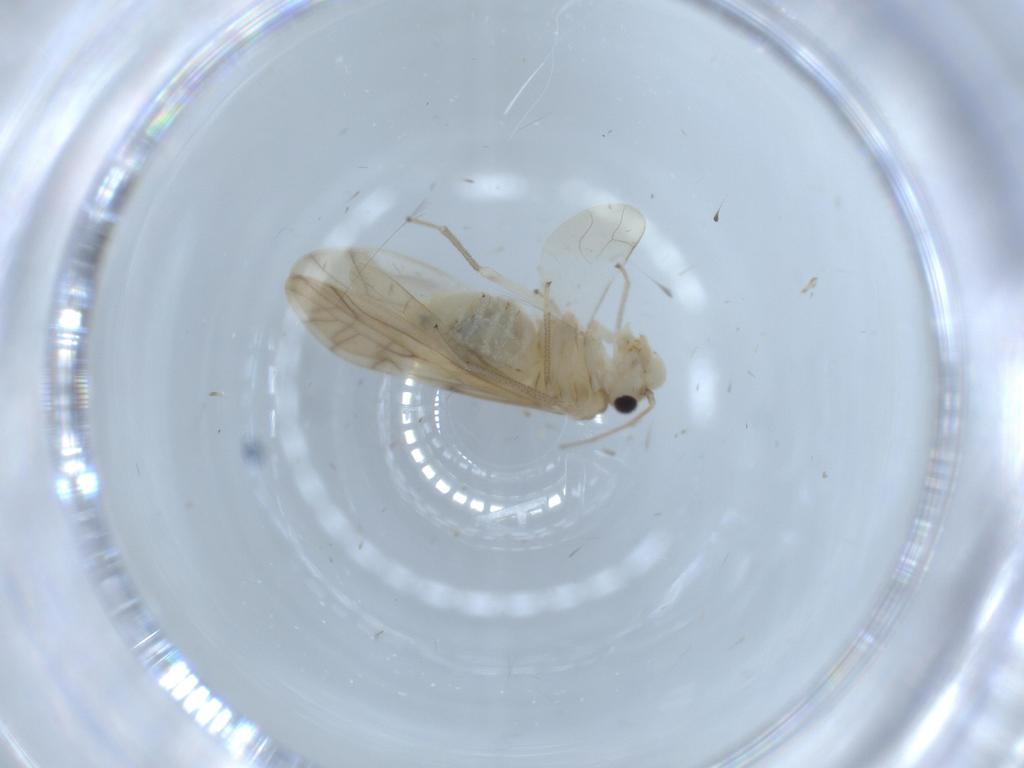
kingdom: Animalia
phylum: Arthropoda
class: Insecta
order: Psocodea
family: Caeciliusidae
